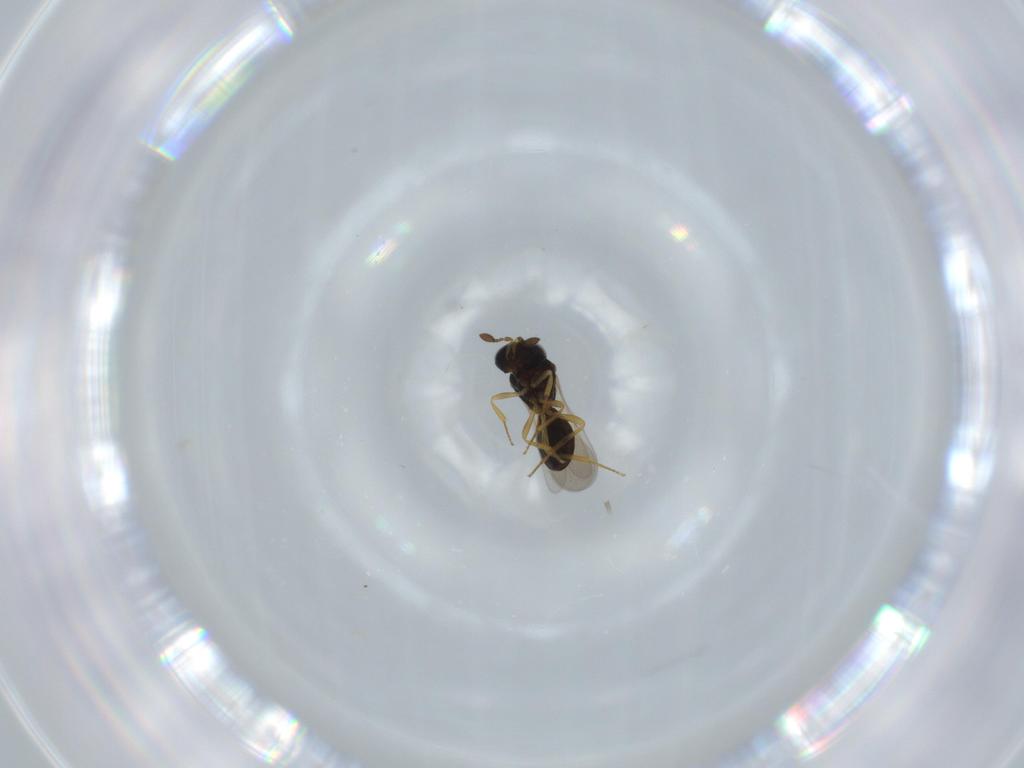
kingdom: Animalia
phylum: Arthropoda
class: Insecta
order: Hymenoptera
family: Scelionidae
